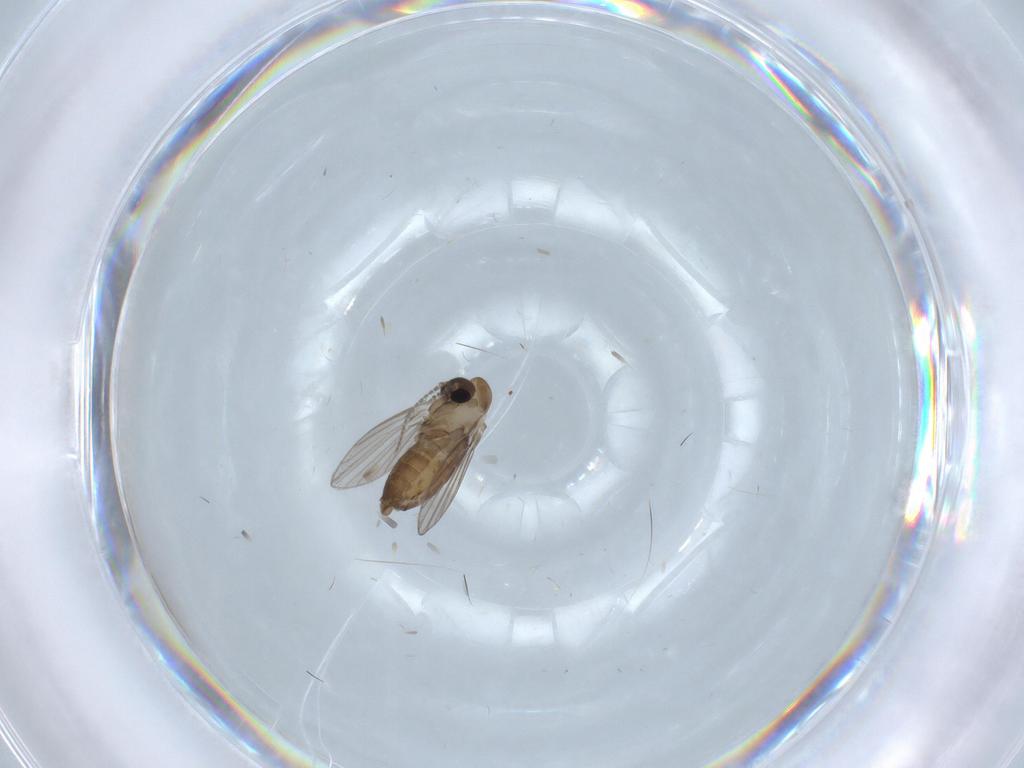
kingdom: Animalia
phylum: Arthropoda
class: Insecta
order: Diptera
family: Psychodidae
